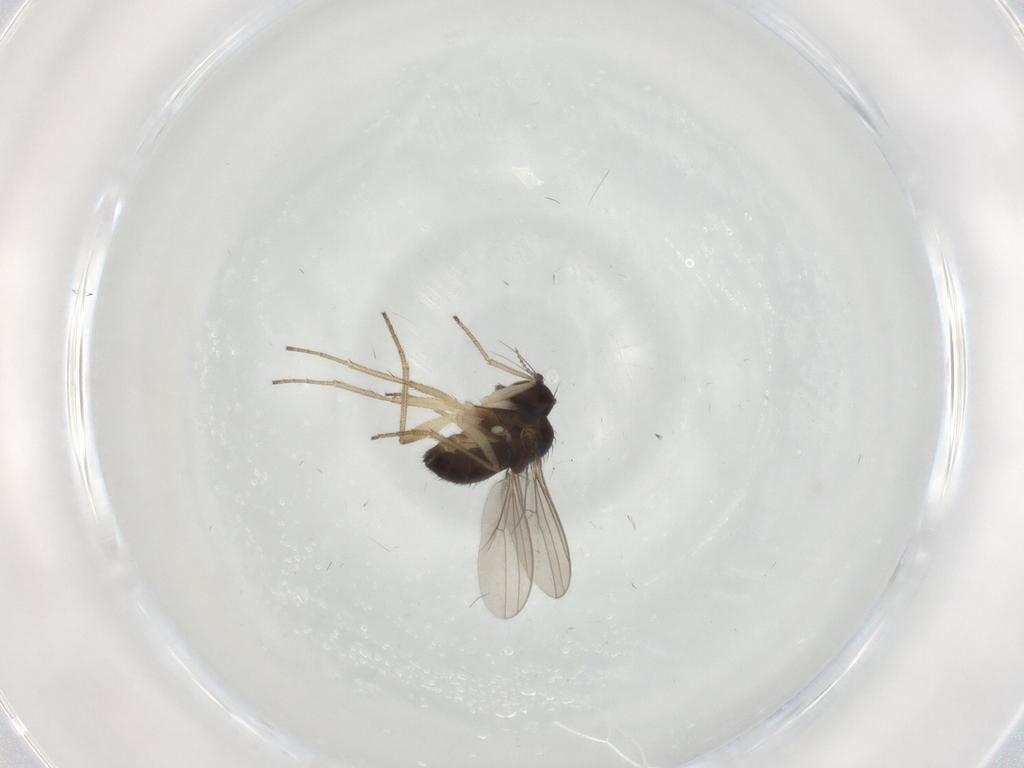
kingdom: Animalia
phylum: Arthropoda
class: Insecta
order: Diptera
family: Dolichopodidae
